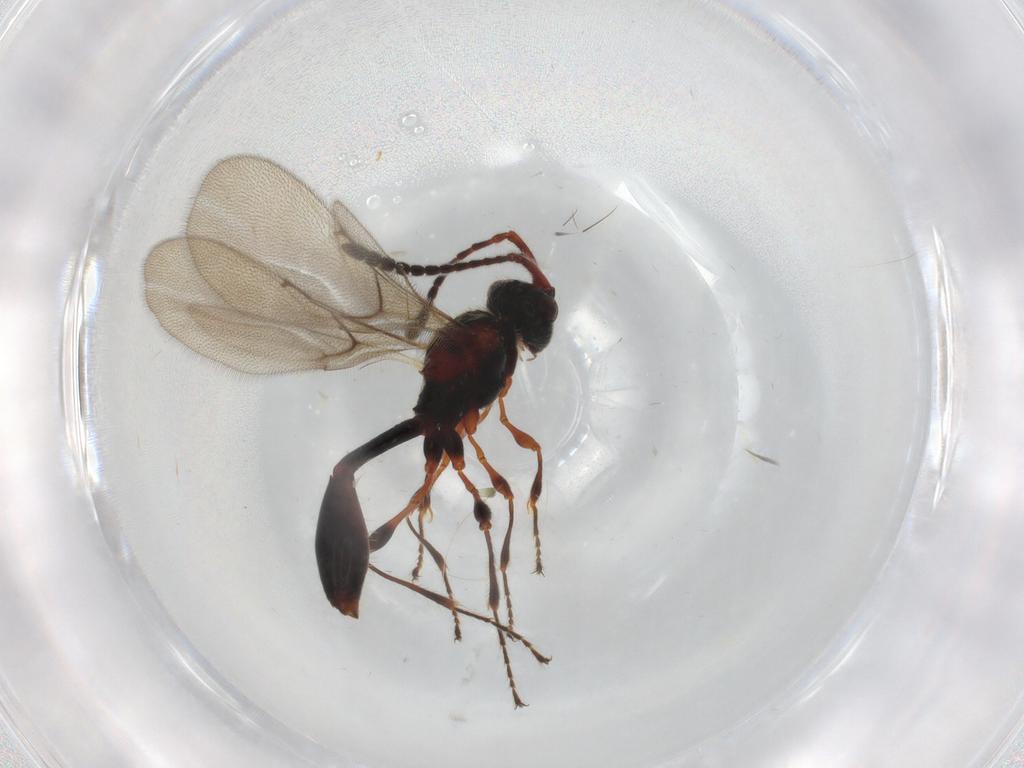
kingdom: Animalia
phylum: Arthropoda
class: Insecta
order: Hymenoptera
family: Diapriidae
